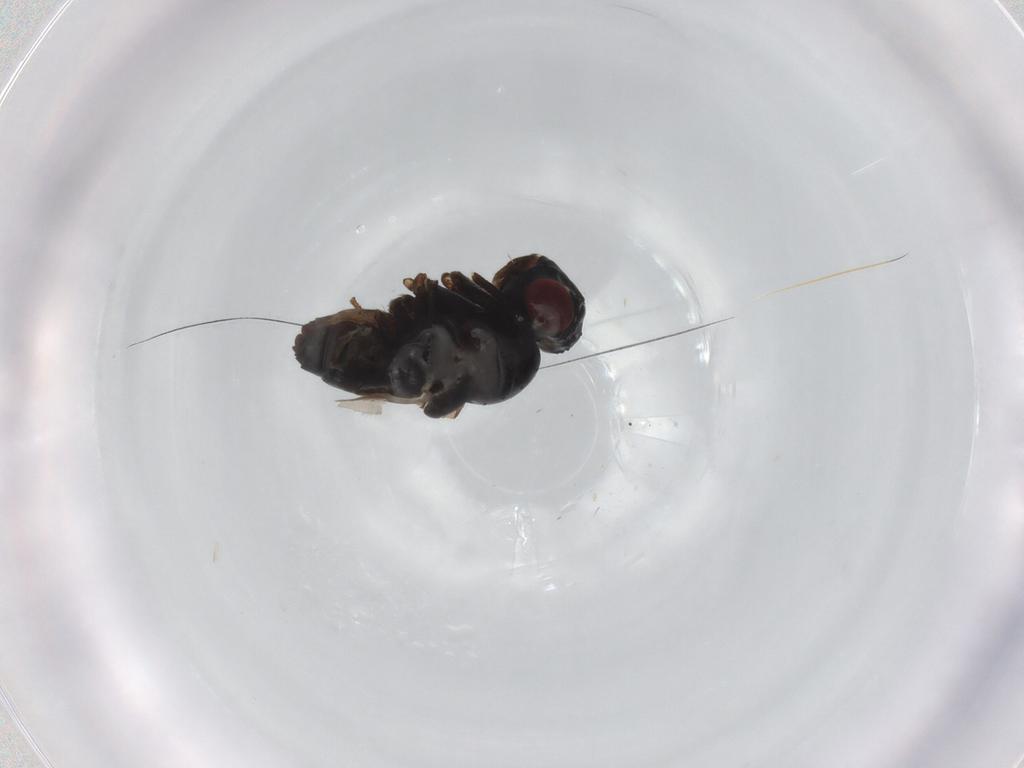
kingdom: Animalia
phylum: Arthropoda
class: Insecta
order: Diptera
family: Ephydridae
